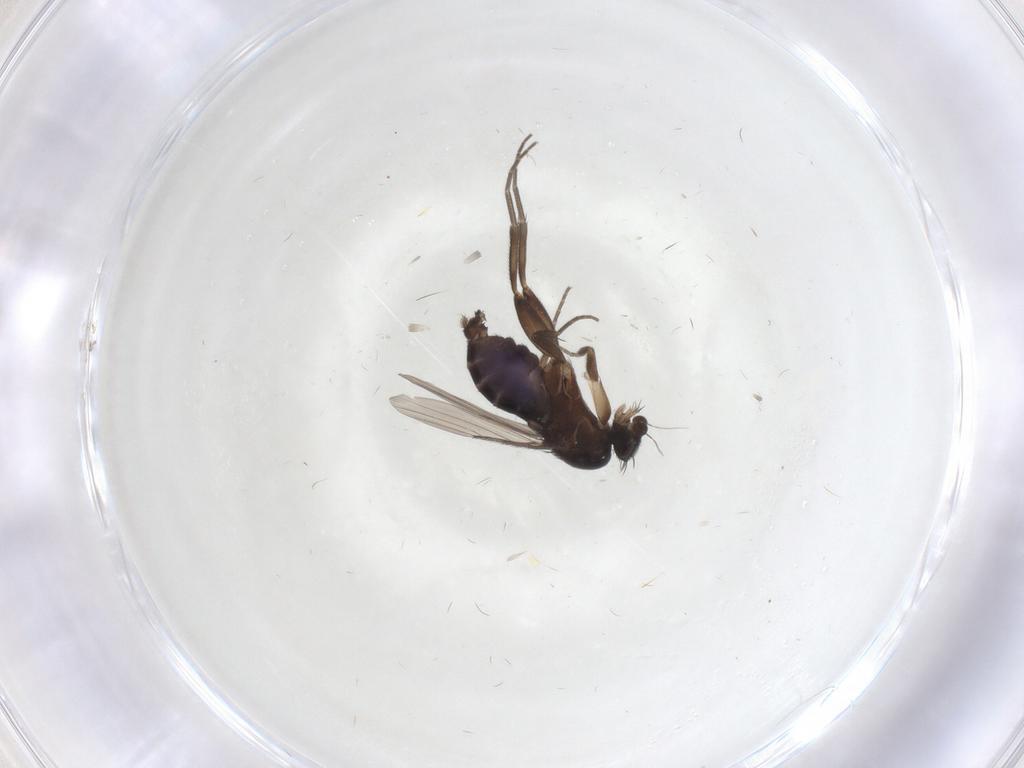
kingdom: Animalia
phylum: Arthropoda
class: Insecta
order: Diptera
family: Phoridae
